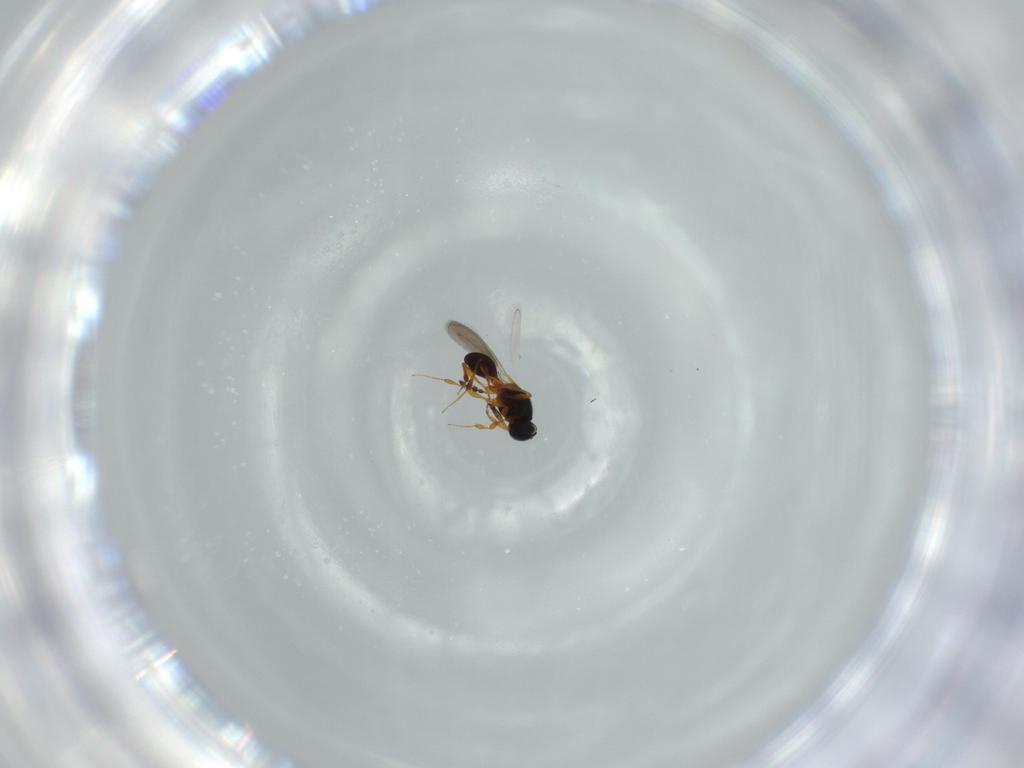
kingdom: Animalia
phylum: Arthropoda
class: Insecta
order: Hymenoptera
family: Platygastridae
